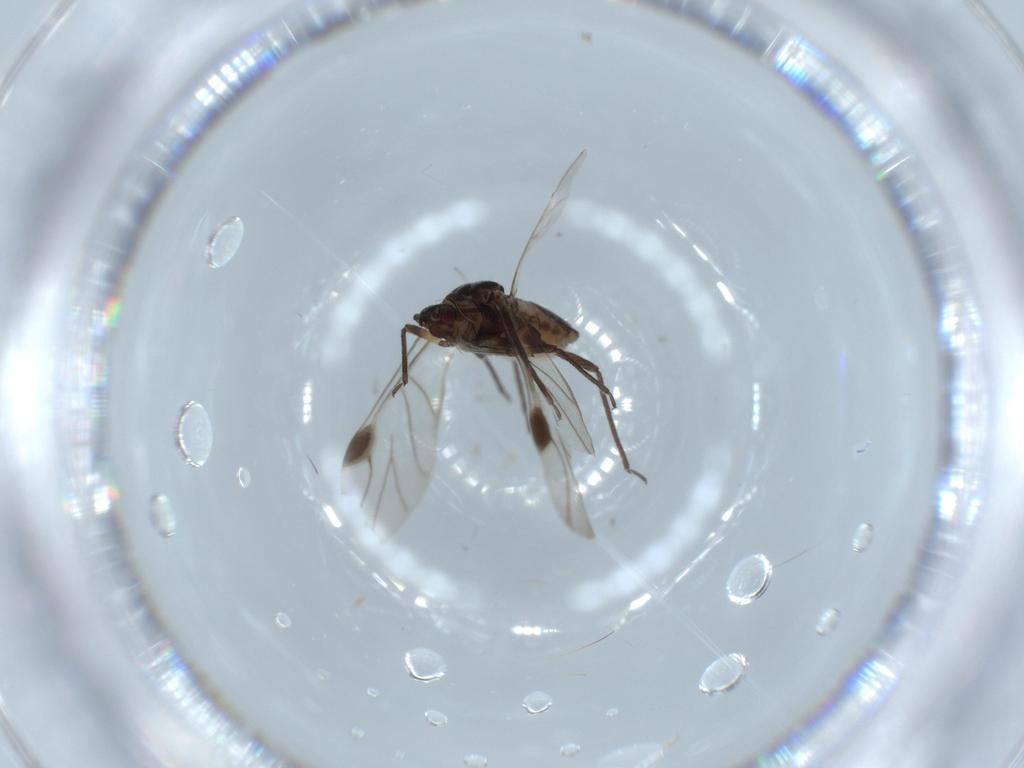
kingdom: Animalia
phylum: Arthropoda
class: Insecta
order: Hemiptera
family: Aphididae
